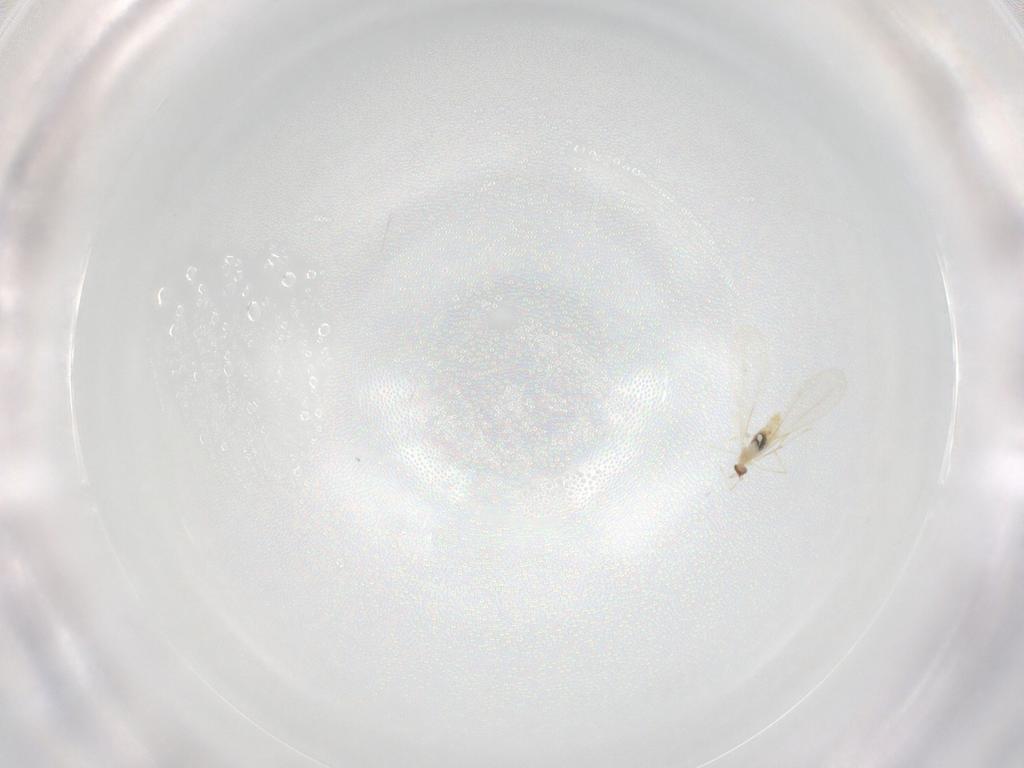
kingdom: Animalia
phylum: Arthropoda
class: Insecta
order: Diptera
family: Cecidomyiidae
